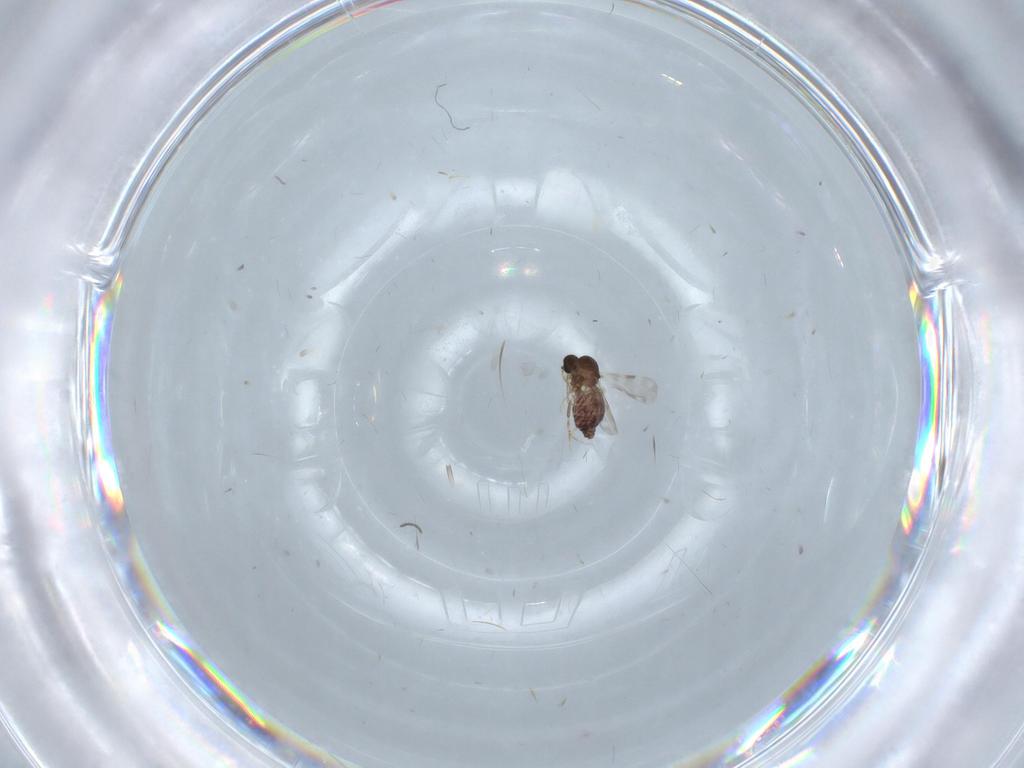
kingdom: Animalia
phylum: Arthropoda
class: Insecta
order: Diptera
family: Ceratopogonidae
